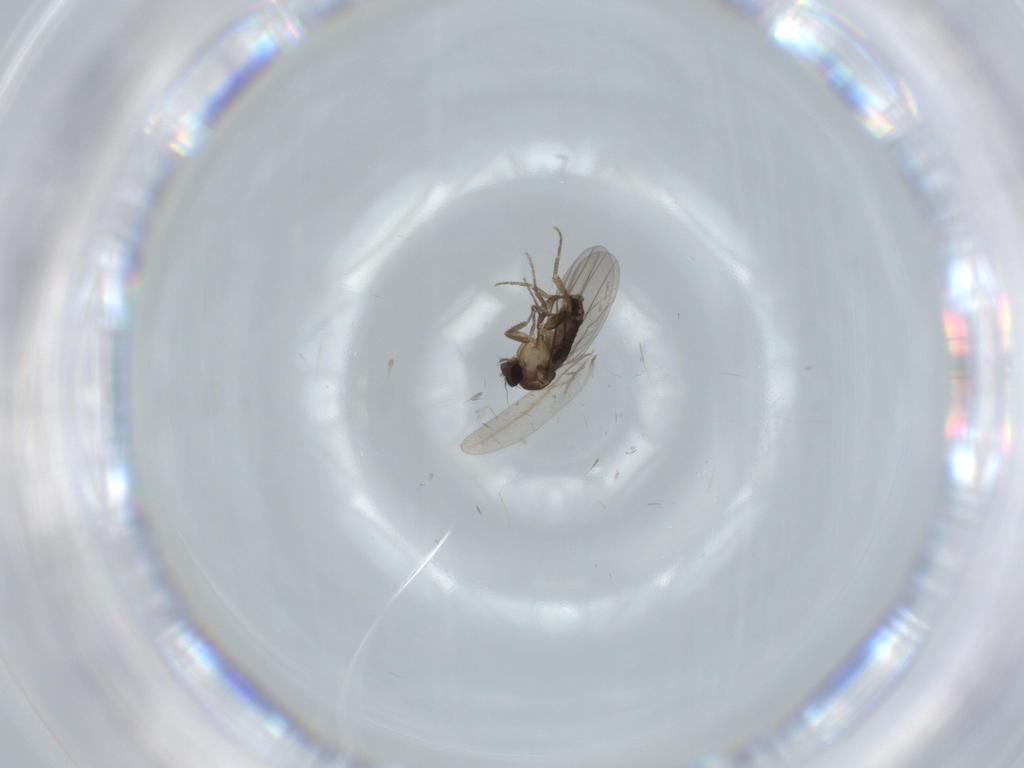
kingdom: Animalia
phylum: Arthropoda
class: Insecta
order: Diptera
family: Phoridae
